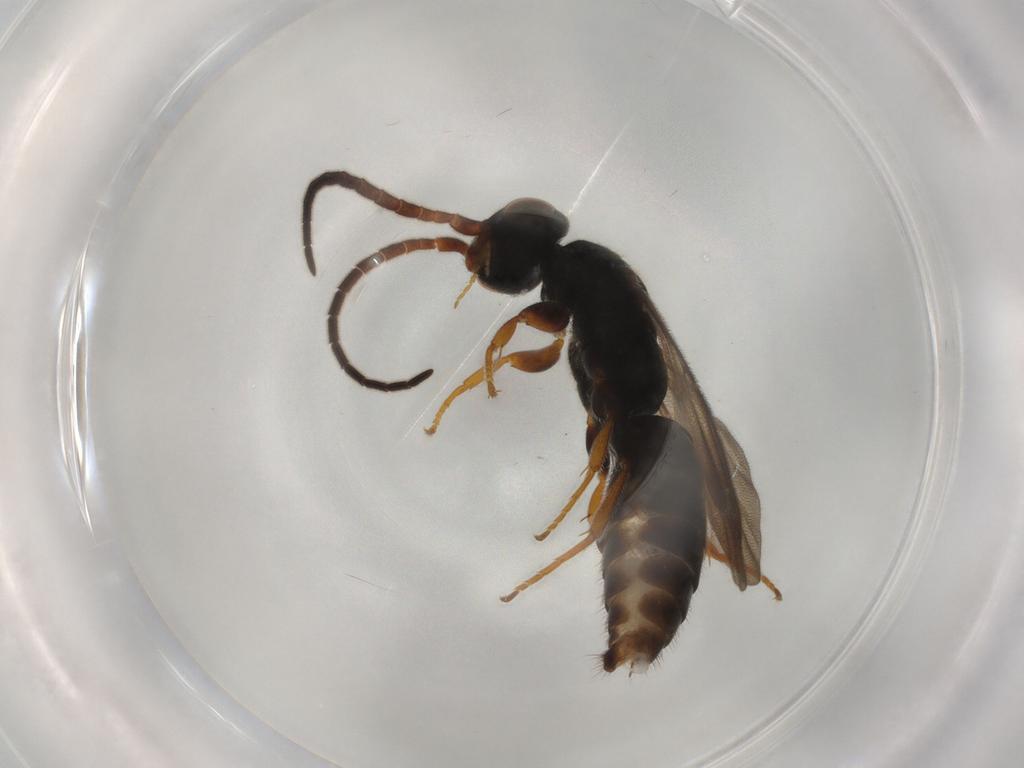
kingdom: Animalia
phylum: Arthropoda
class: Insecta
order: Hymenoptera
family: Bethylidae
